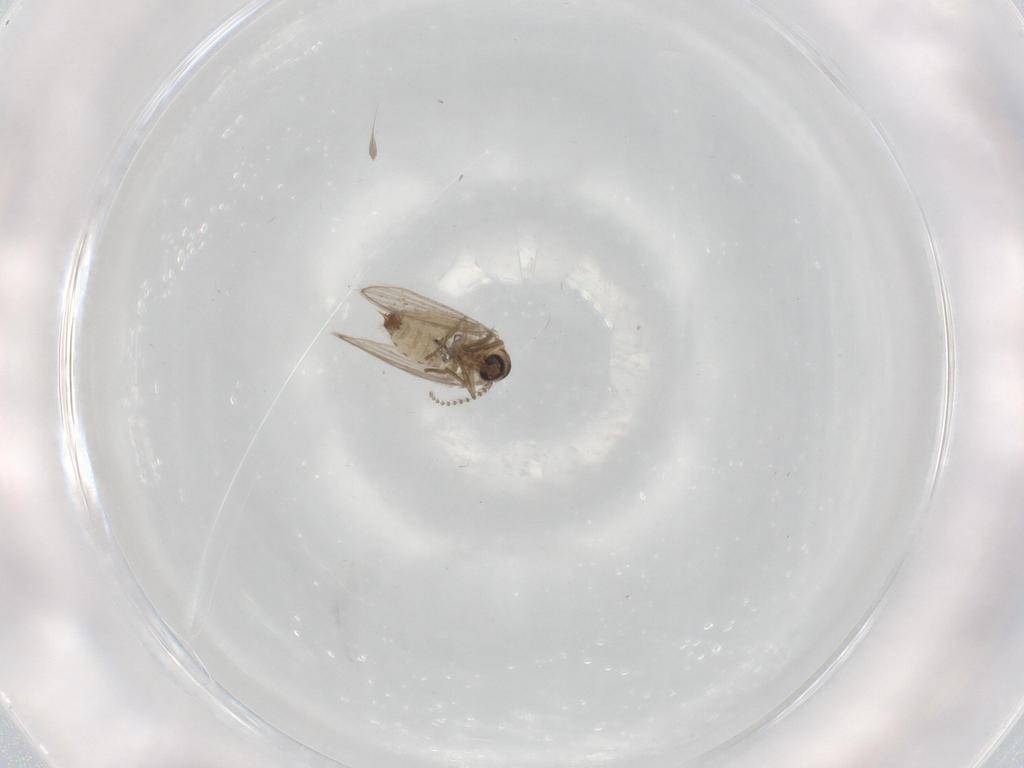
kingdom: Animalia
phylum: Arthropoda
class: Insecta
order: Diptera
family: Psychodidae
